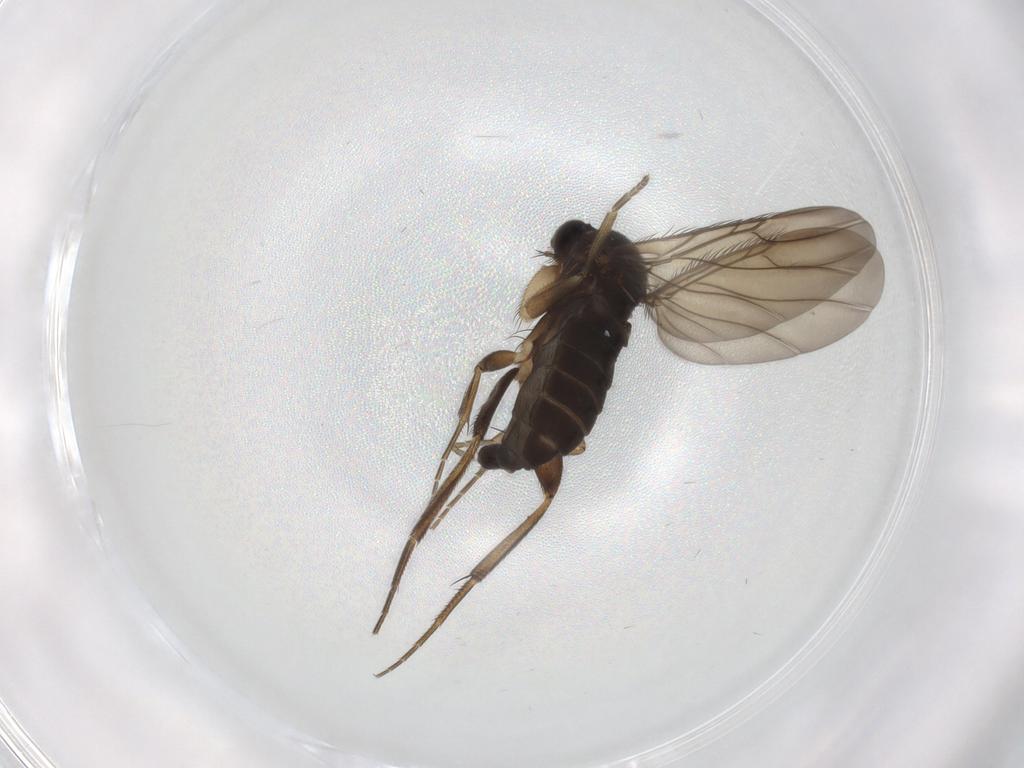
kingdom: Animalia
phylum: Arthropoda
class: Insecta
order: Diptera
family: Phoridae
